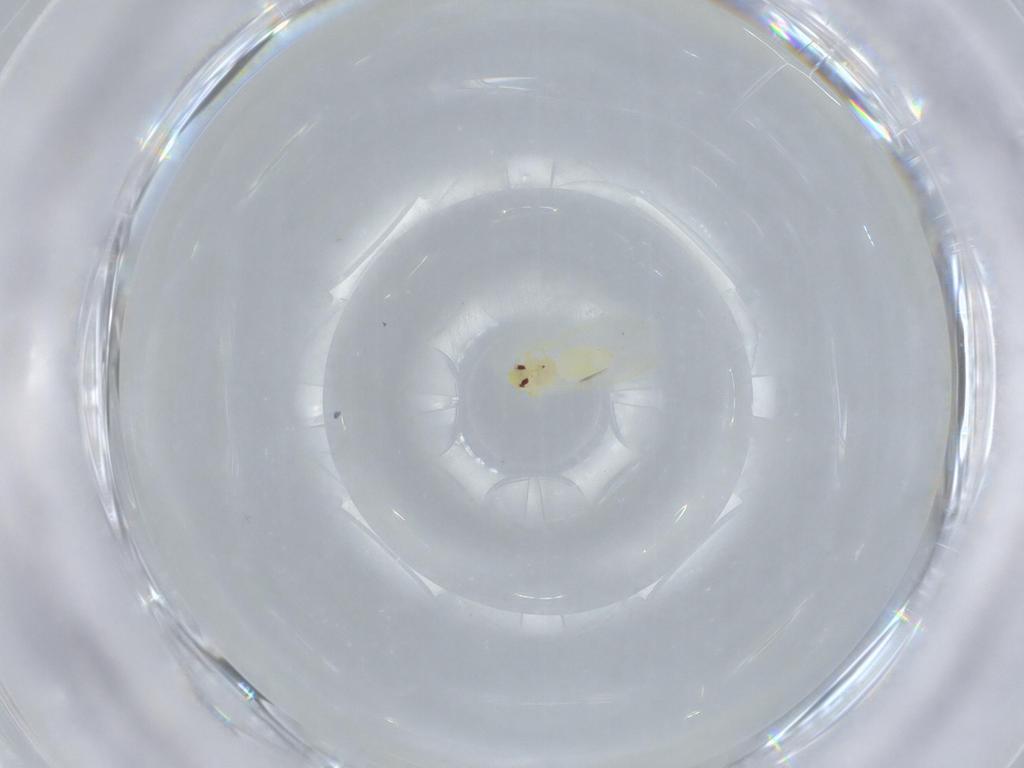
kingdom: Animalia
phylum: Arthropoda
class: Insecta
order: Hemiptera
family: Aleyrodidae
